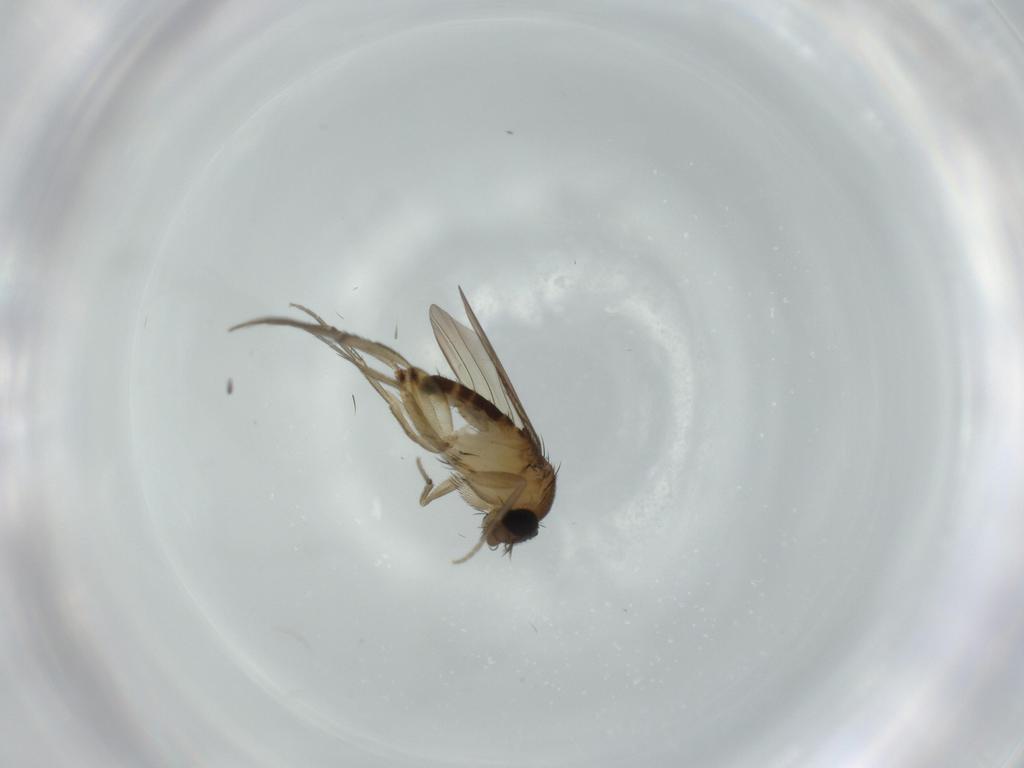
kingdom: Animalia
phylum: Arthropoda
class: Insecta
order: Diptera
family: Phoridae
